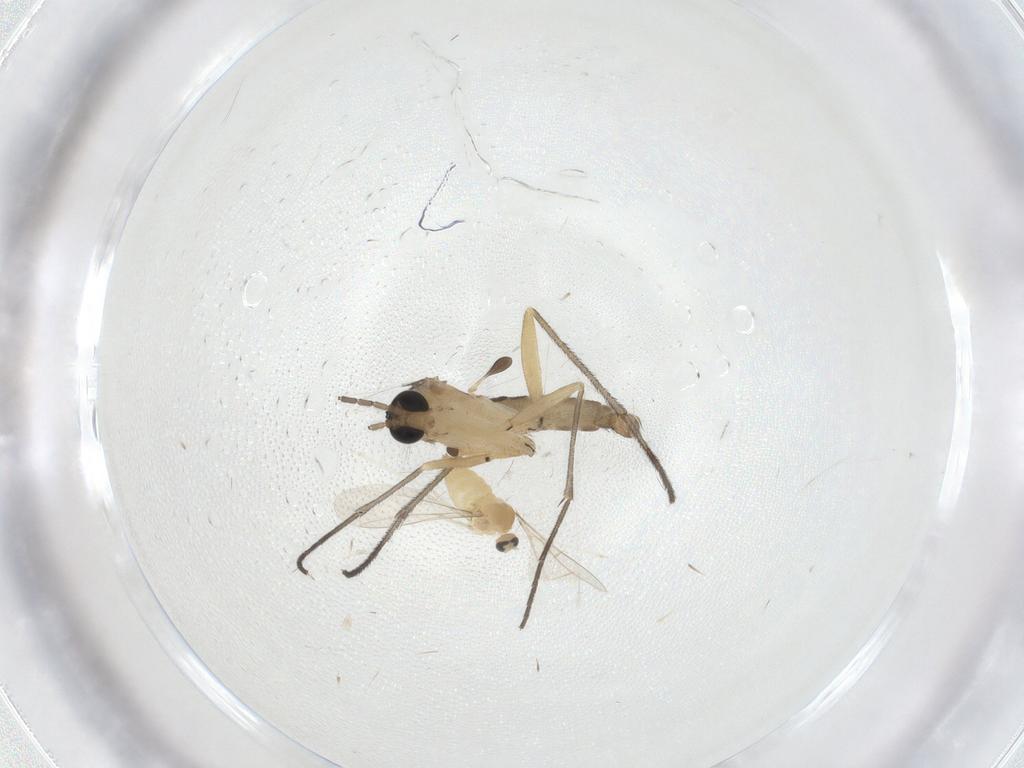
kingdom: Animalia
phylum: Arthropoda
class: Insecta
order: Diptera
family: Sciaridae
